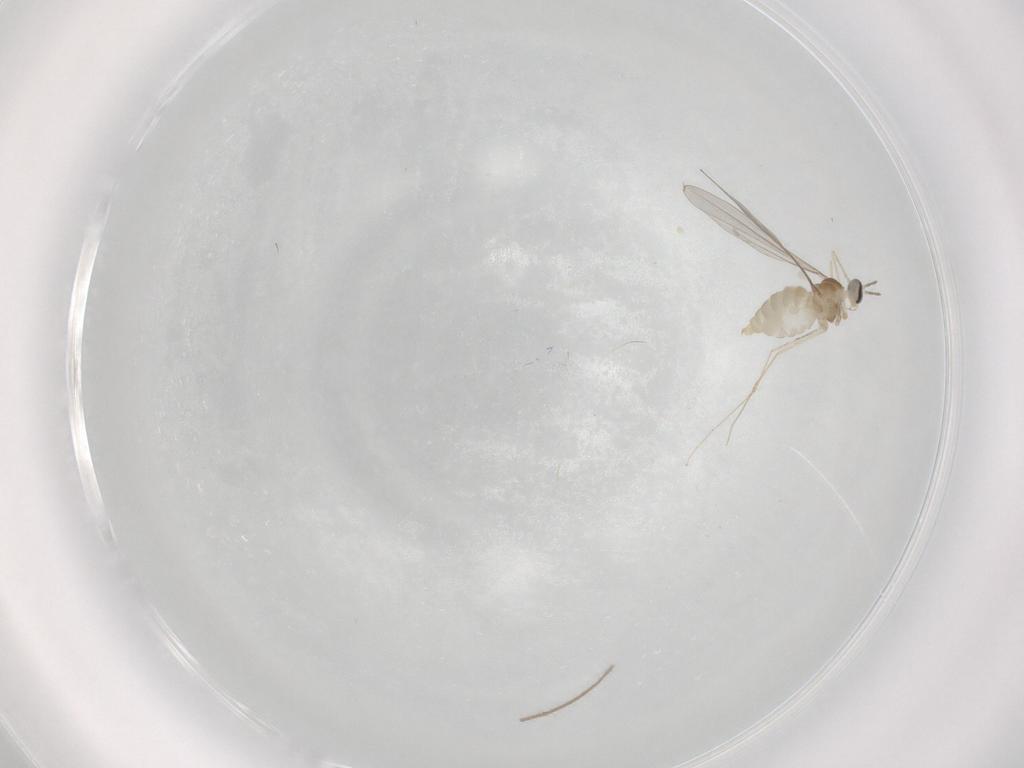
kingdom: Animalia
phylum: Arthropoda
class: Insecta
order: Diptera
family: Cecidomyiidae
